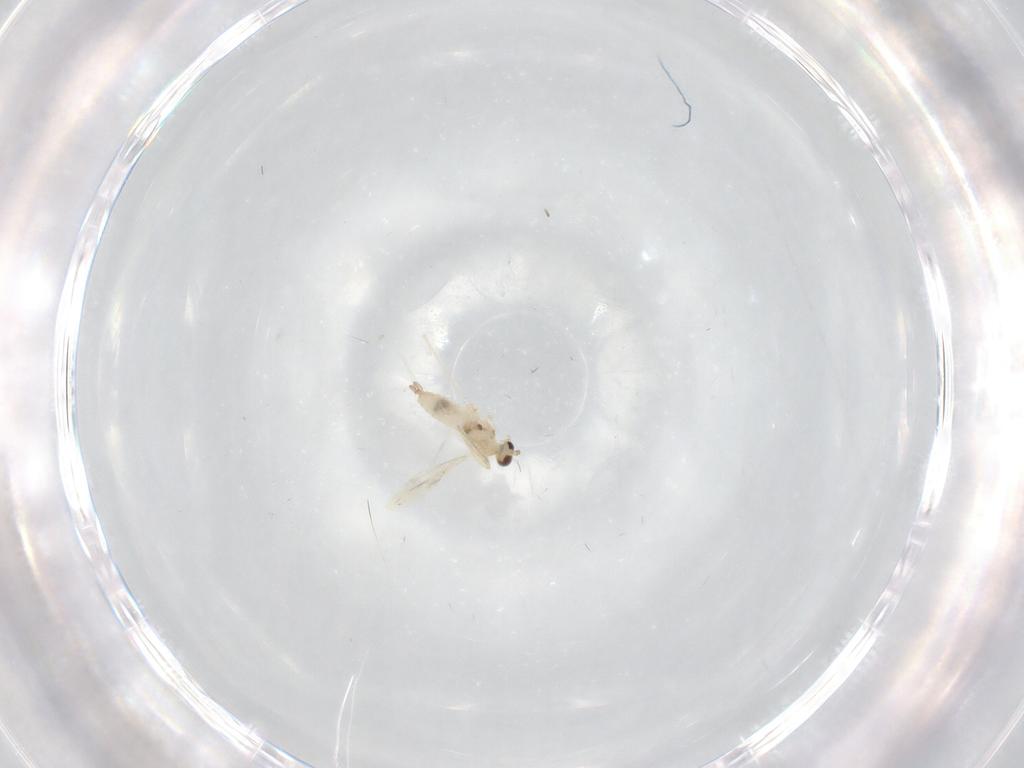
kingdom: Animalia
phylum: Arthropoda
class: Insecta
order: Diptera
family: Cecidomyiidae
